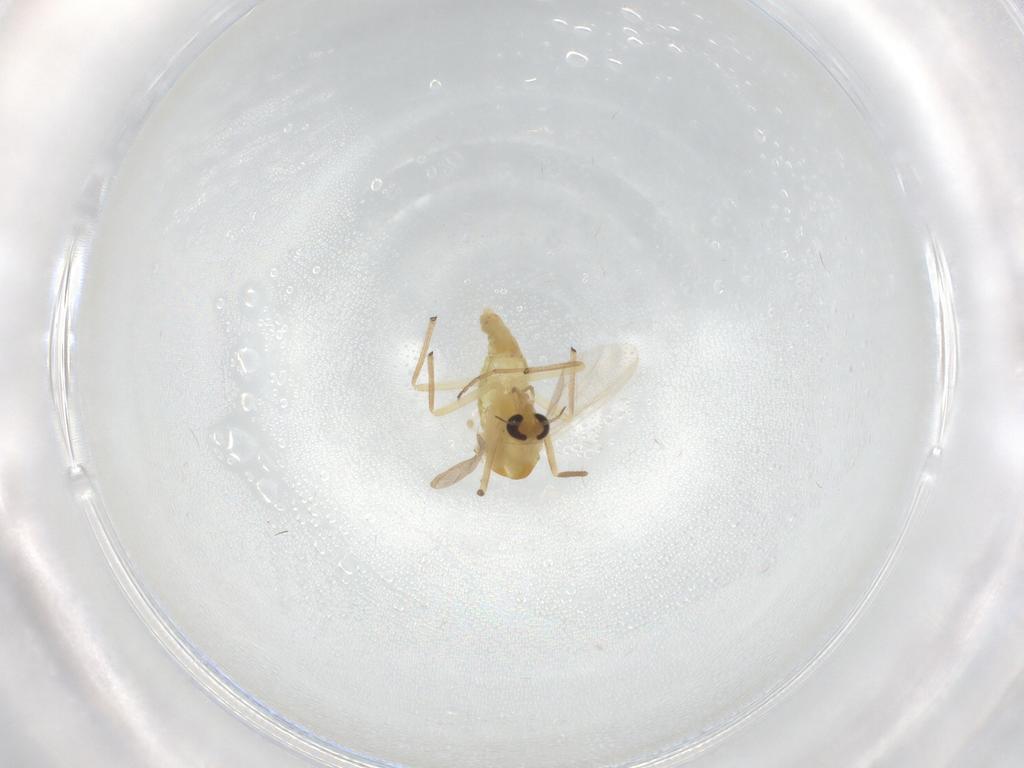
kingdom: Animalia
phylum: Arthropoda
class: Insecta
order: Diptera
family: Chironomidae
